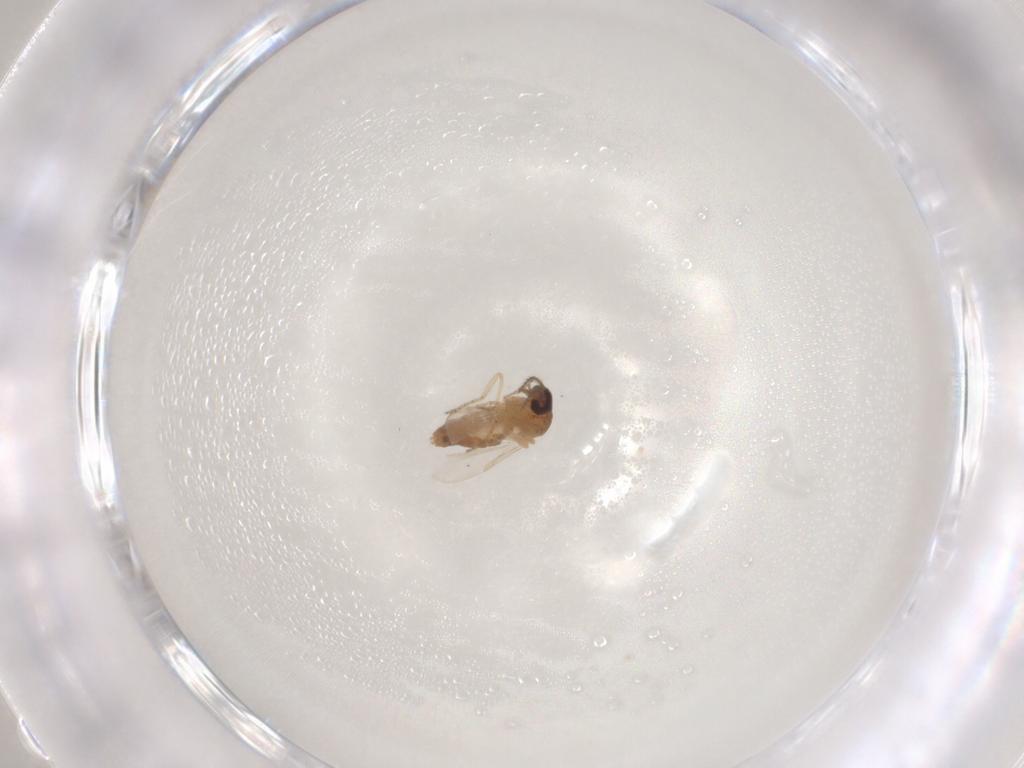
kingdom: Animalia
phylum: Arthropoda
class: Insecta
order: Diptera
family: Ceratopogonidae
